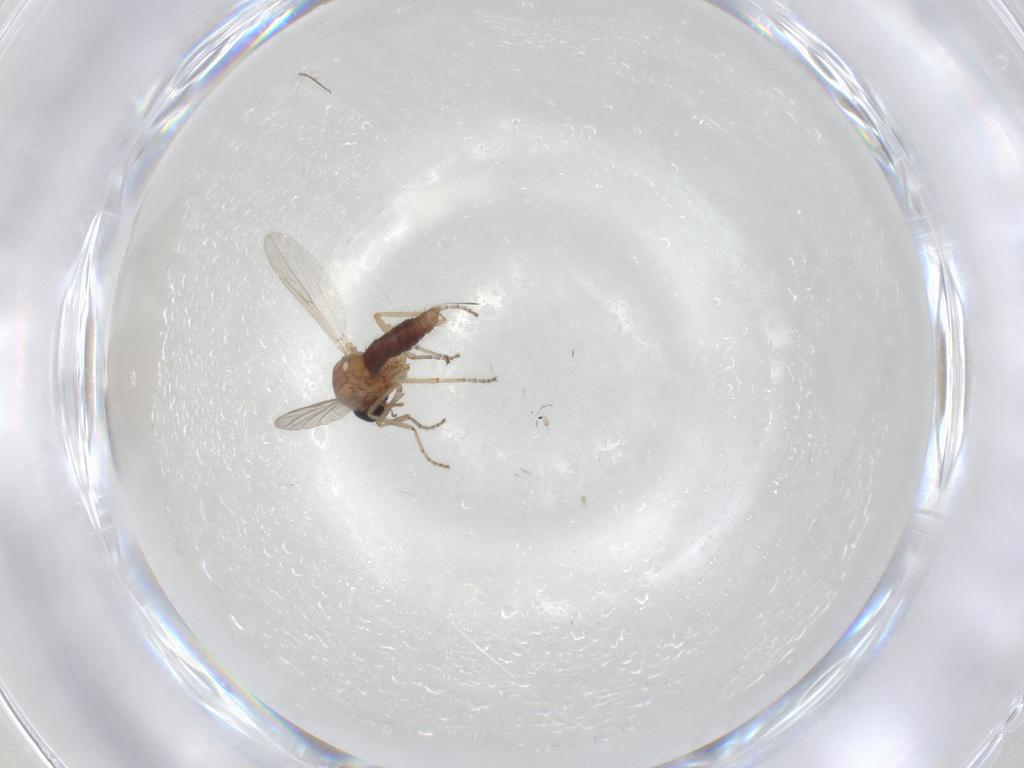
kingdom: Animalia
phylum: Arthropoda
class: Insecta
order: Diptera
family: Ceratopogonidae
